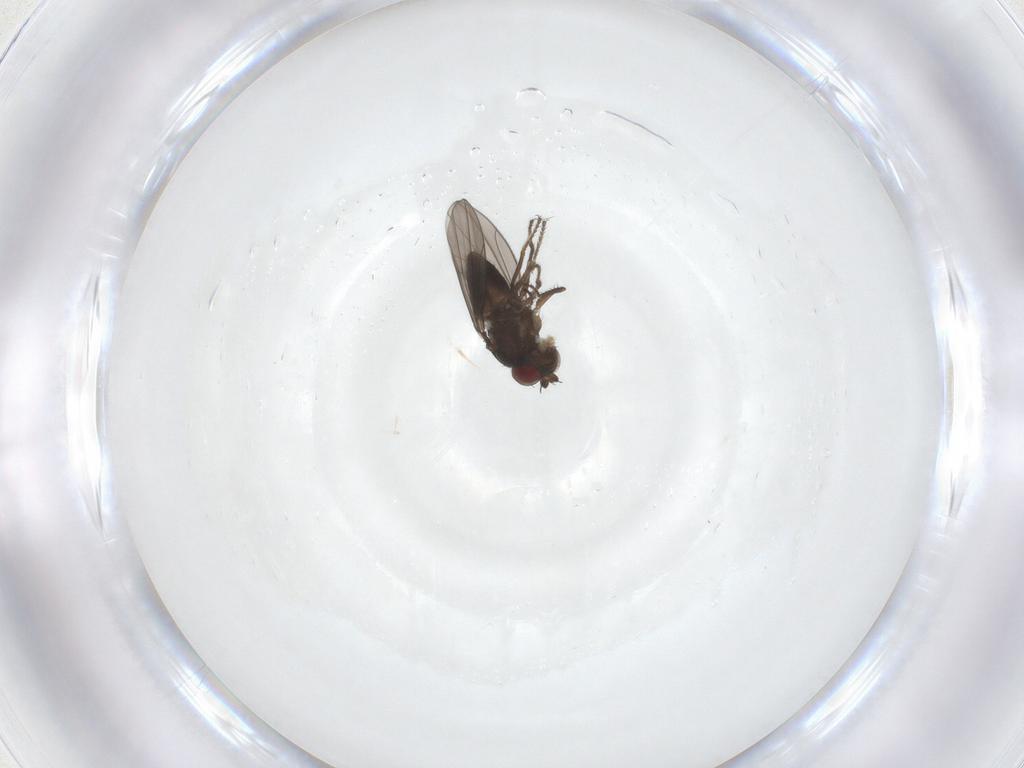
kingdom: Animalia
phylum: Arthropoda
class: Insecta
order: Diptera
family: Ephydridae
